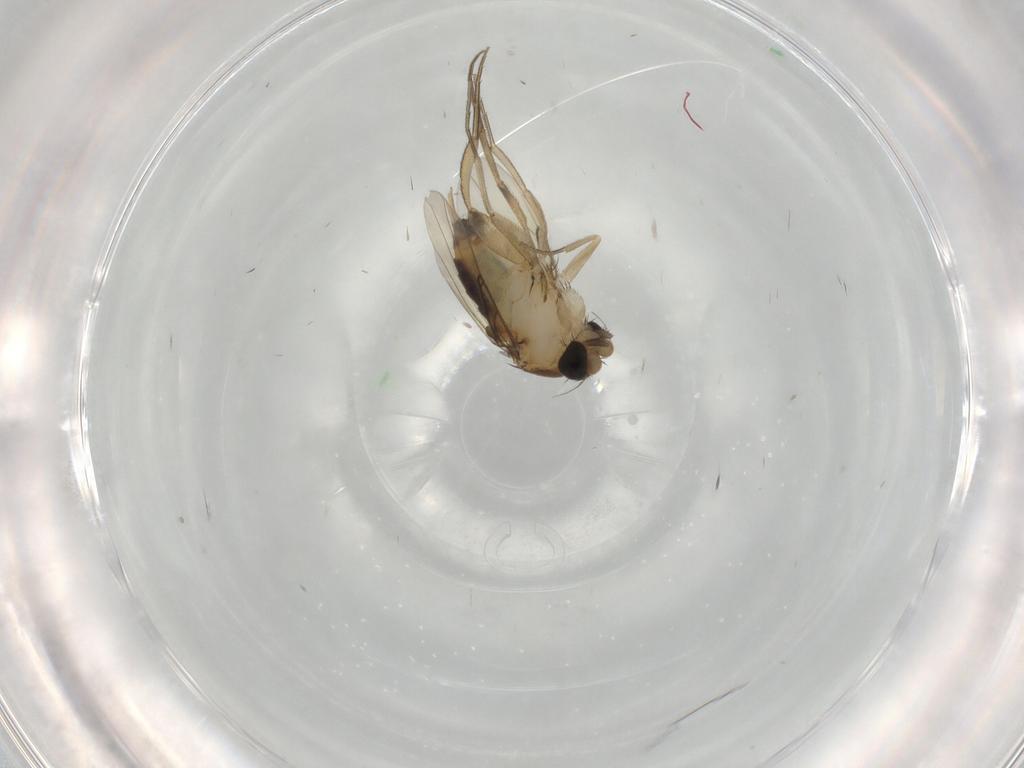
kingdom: Animalia
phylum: Arthropoda
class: Insecta
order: Diptera
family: Phoridae
